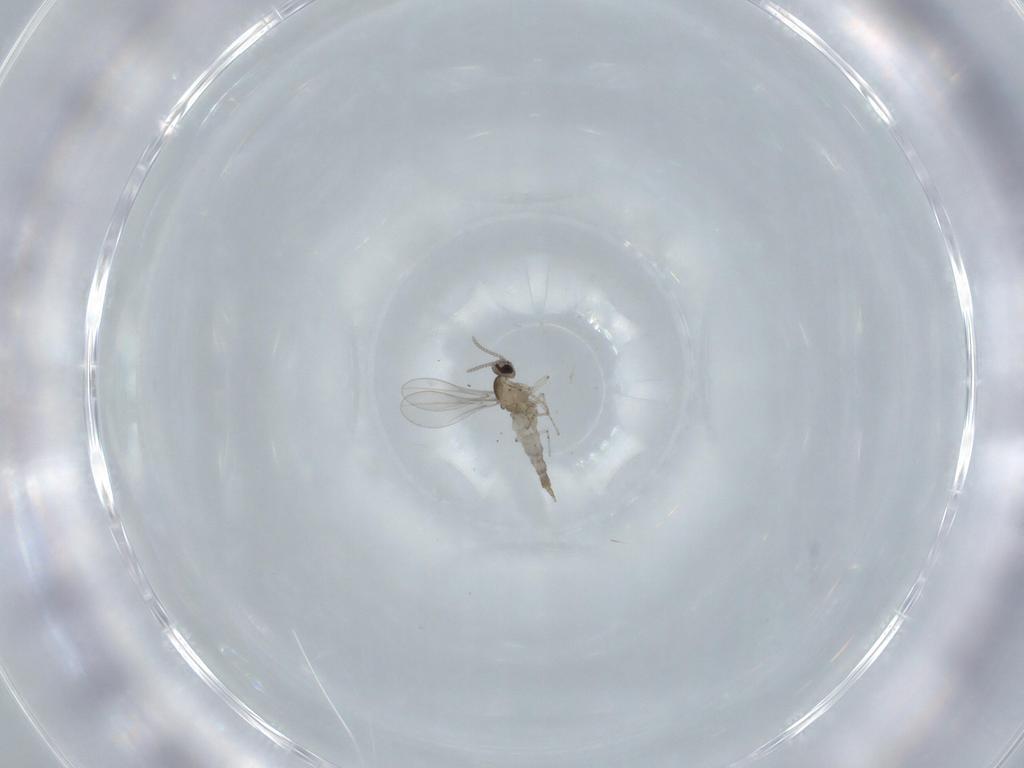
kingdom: Animalia
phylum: Arthropoda
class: Insecta
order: Diptera
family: Cecidomyiidae
